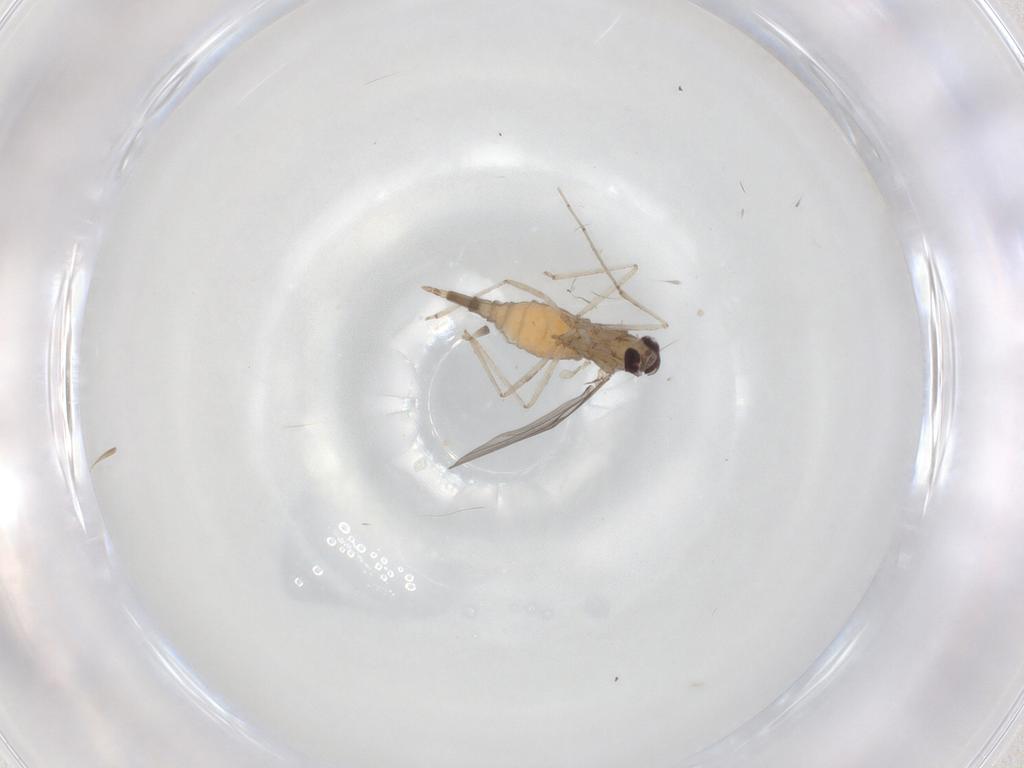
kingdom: Animalia
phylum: Arthropoda
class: Insecta
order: Diptera
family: Cecidomyiidae
